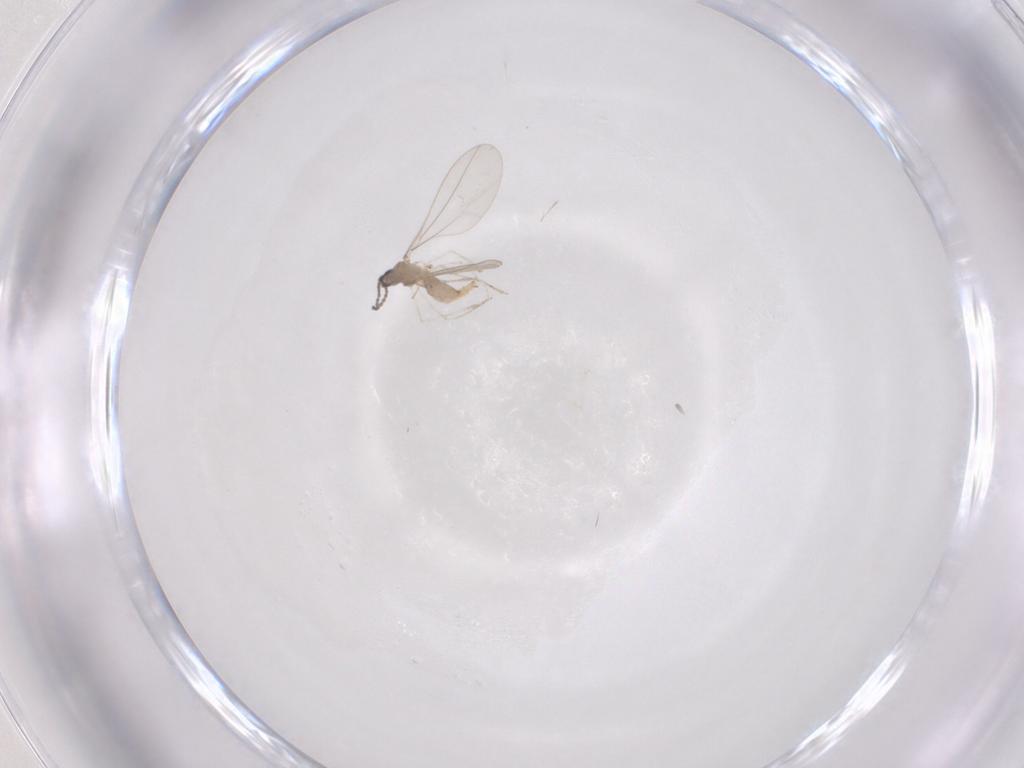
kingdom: Animalia
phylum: Arthropoda
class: Insecta
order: Diptera
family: Cecidomyiidae
